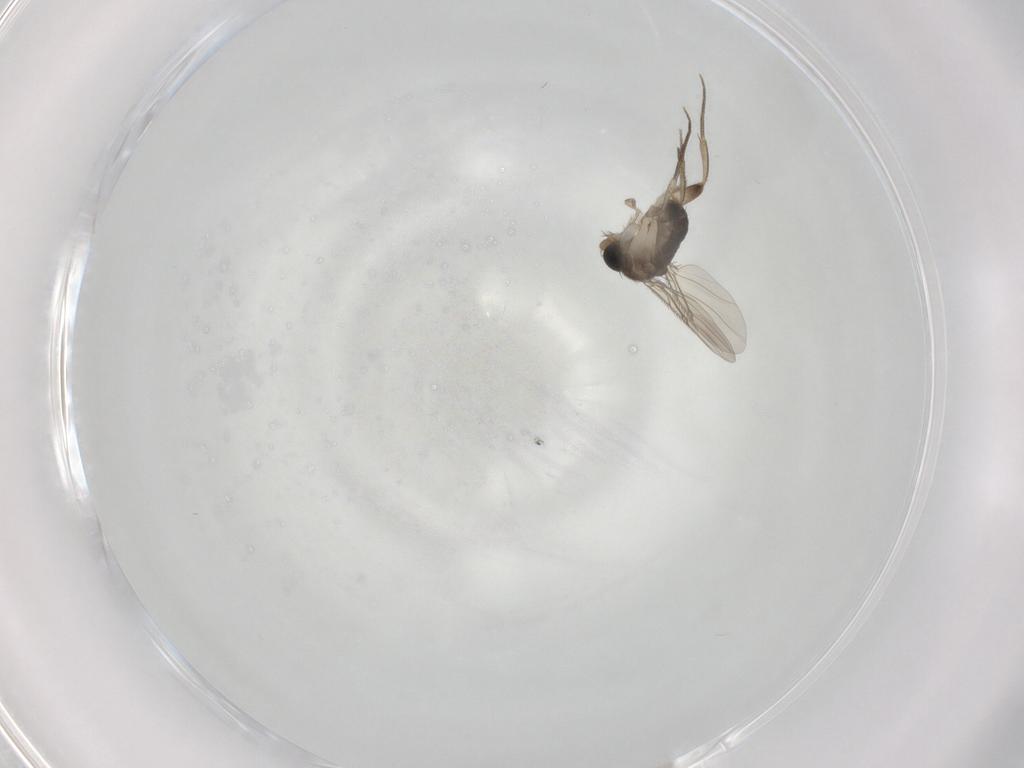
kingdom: Animalia
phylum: Arthropoda
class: Insecta
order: Diptera
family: Phoridae
